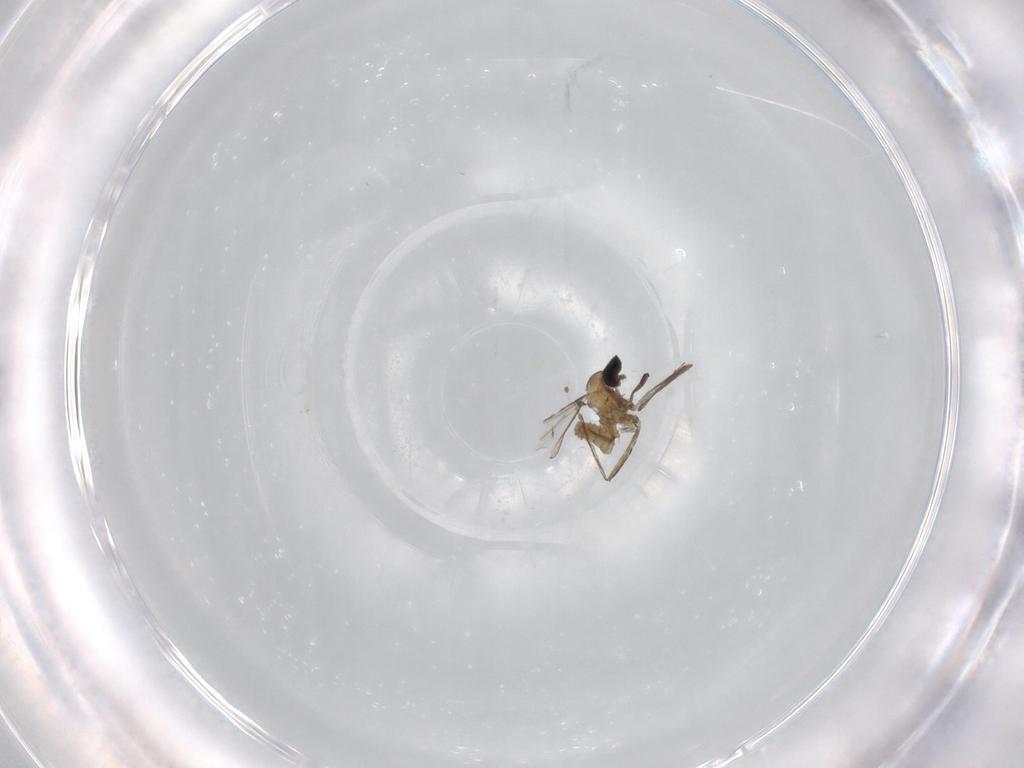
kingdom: Animalia
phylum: Arthropoda
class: Insecta
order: Diptera
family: Cecidomyiidae
